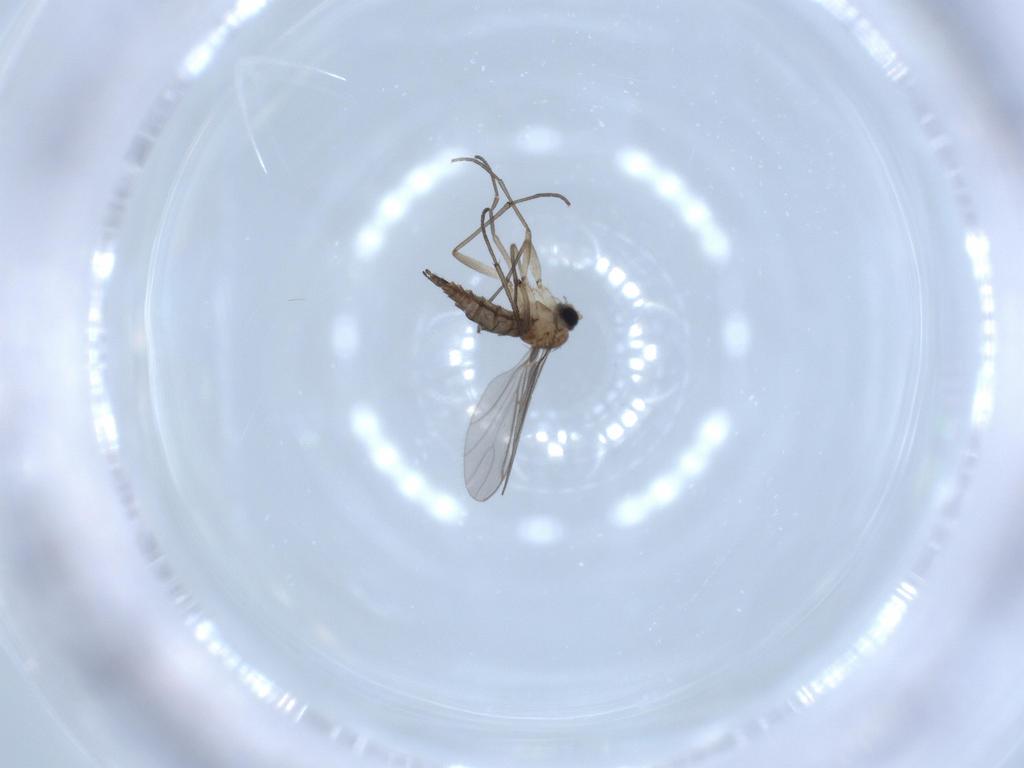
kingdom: Animalia
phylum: Arthropoda
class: Insecta
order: Diptera
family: Sciaridae
